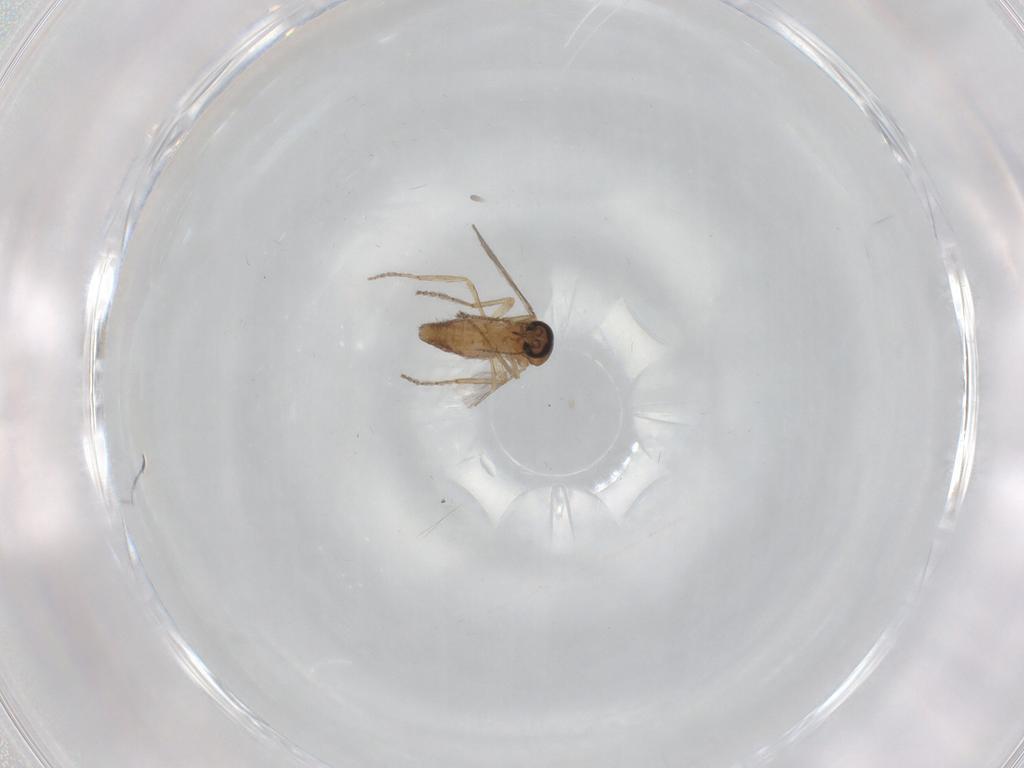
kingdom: Animalia
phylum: Arthropoda
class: Insecta
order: Diptera
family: Ceratopogonidae
